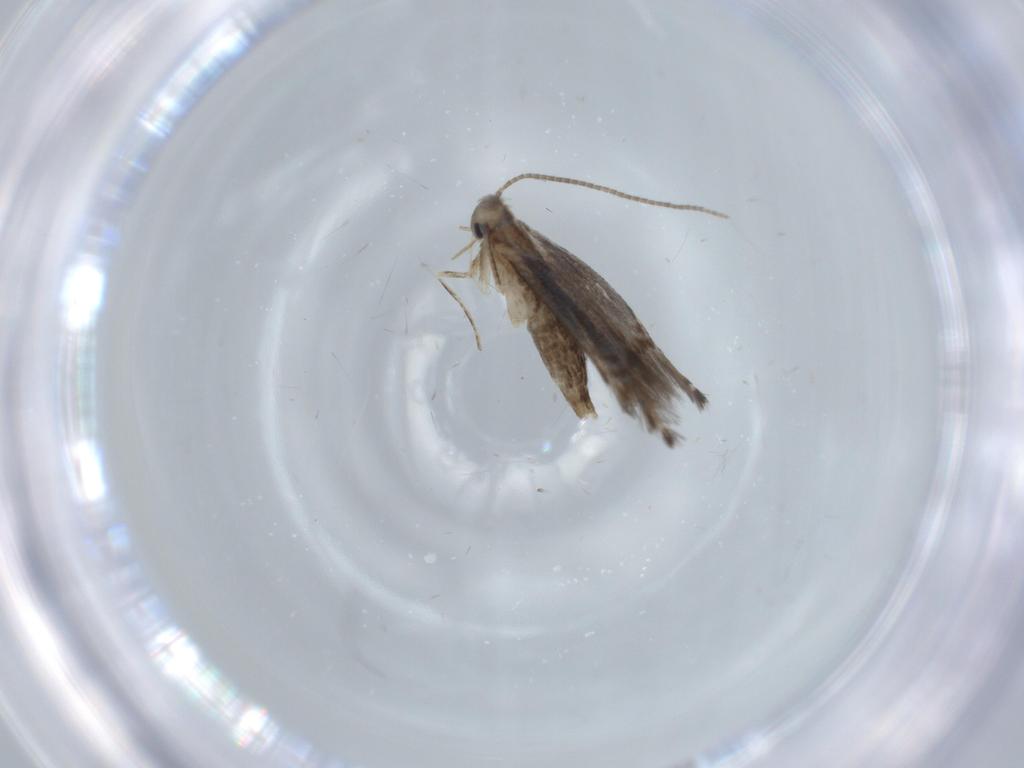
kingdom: Animalia
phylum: Arthropoda
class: Insecta
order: Lepidoptera
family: Gracillariidae
